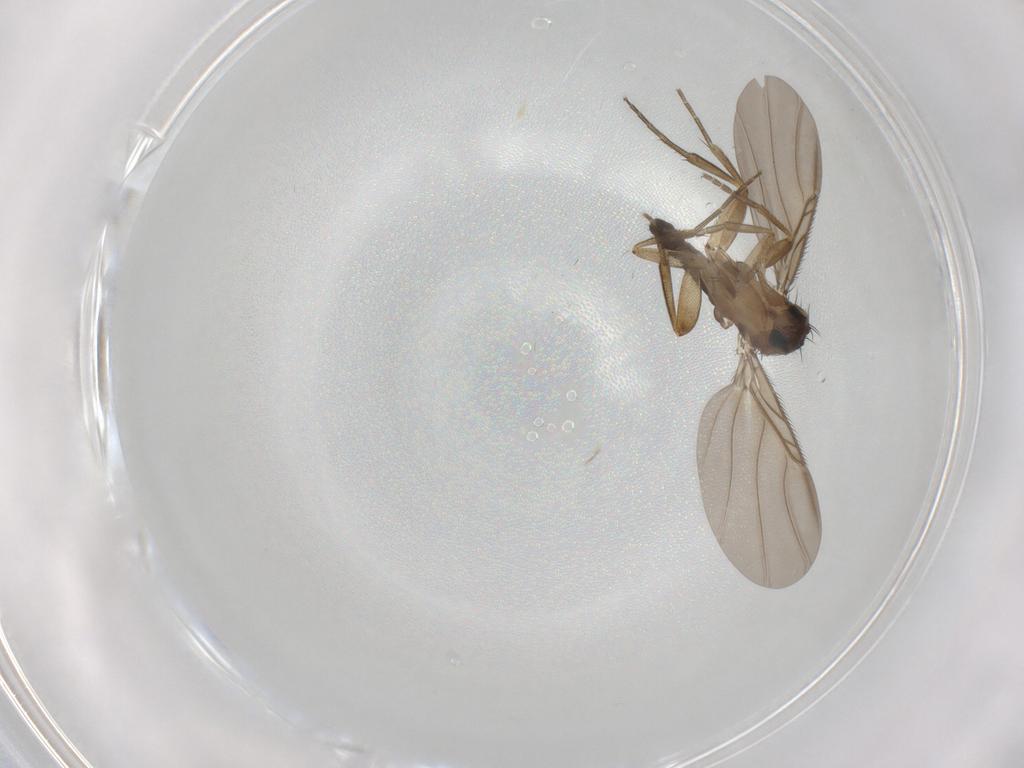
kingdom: Animalia
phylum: Arthropoda
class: Insecta
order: Diptera
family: Phoridae
